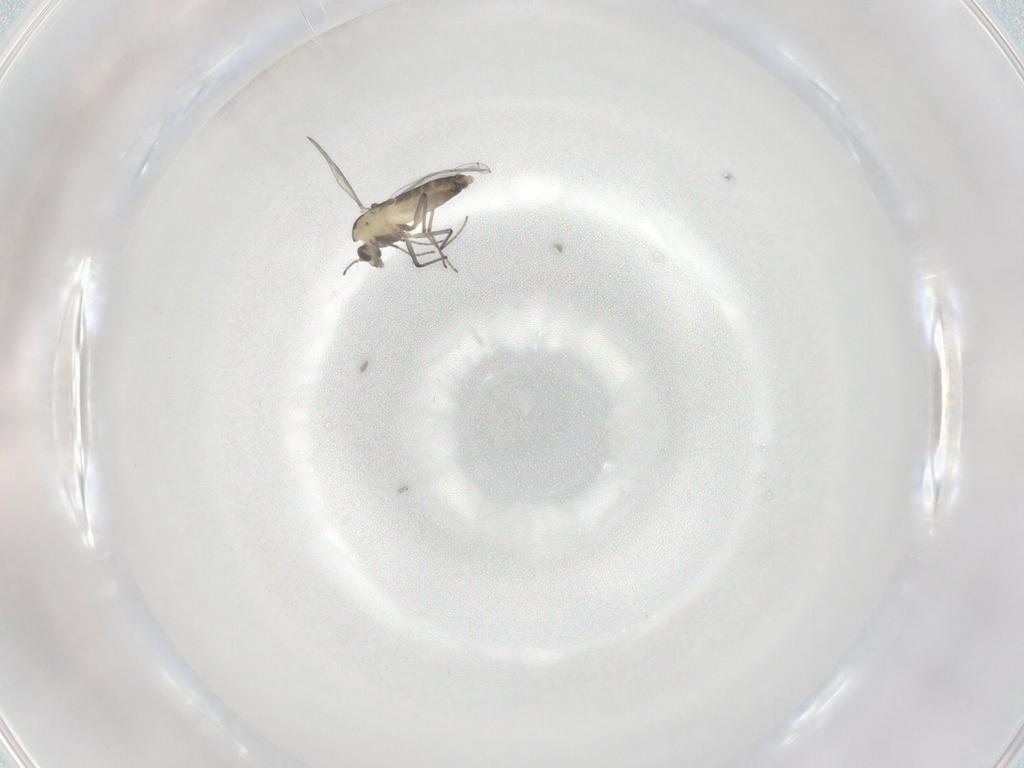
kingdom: Animalia
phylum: Arthropoda
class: Insecta
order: Diptera
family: Chironomidae
